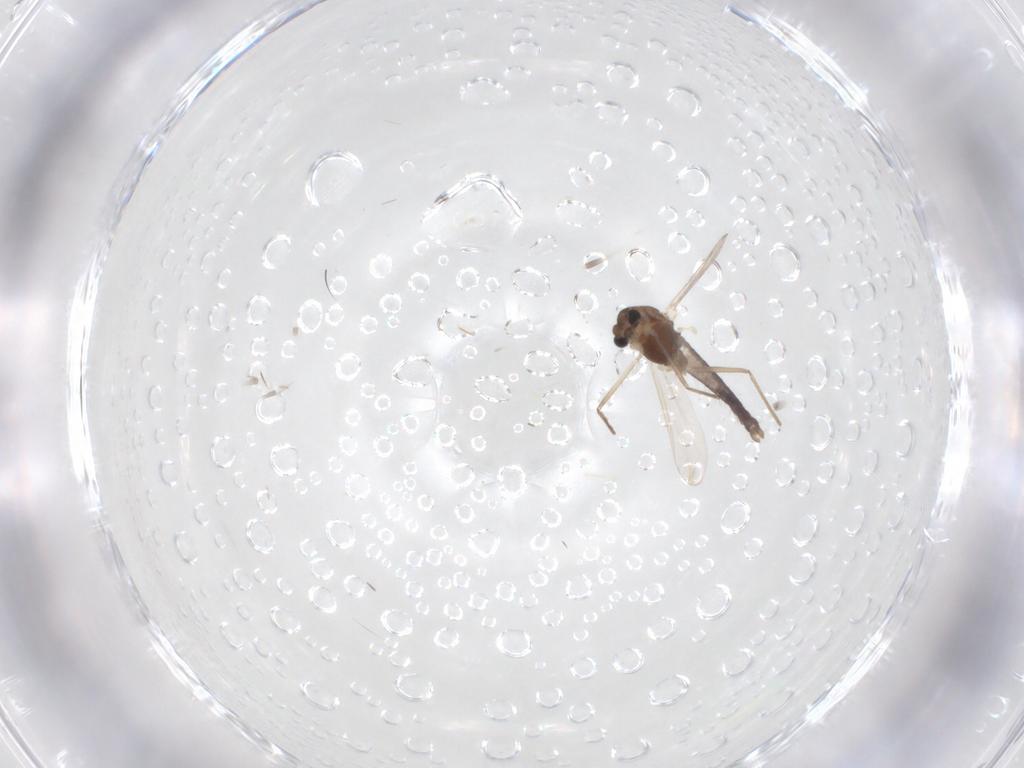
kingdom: Animalia
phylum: Arthropoda
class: Insecta
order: Diptera
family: Chironomidae
